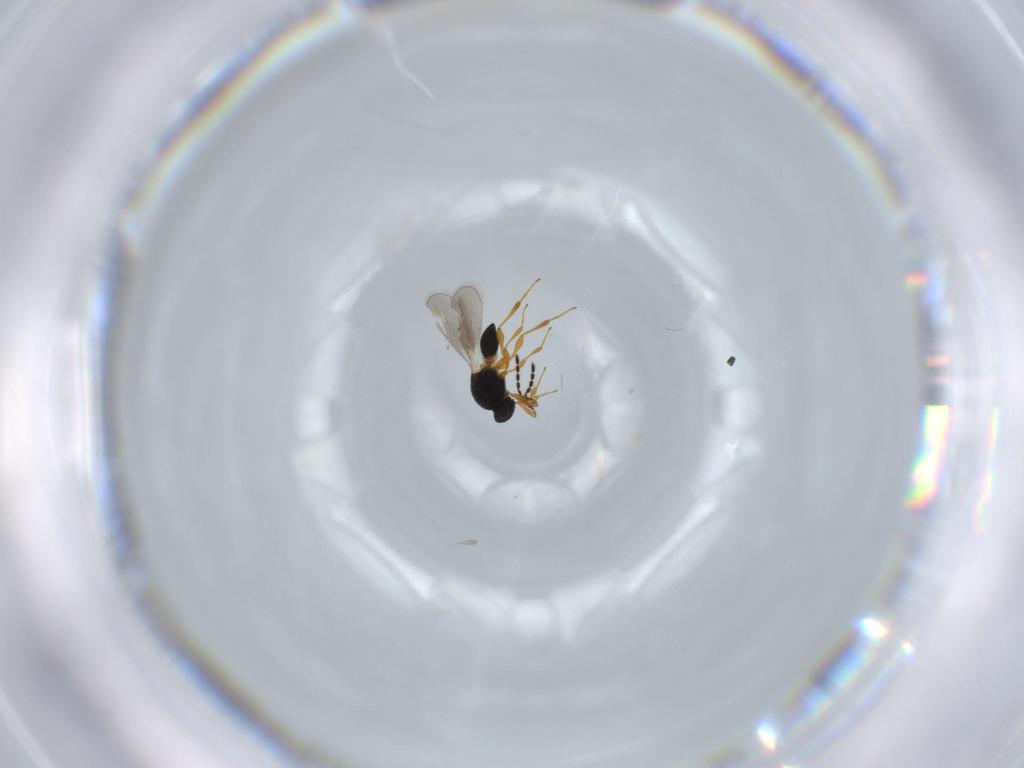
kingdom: Animalia
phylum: Arthropoda
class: Insecta
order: Hymenoptera
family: Platygastridae
